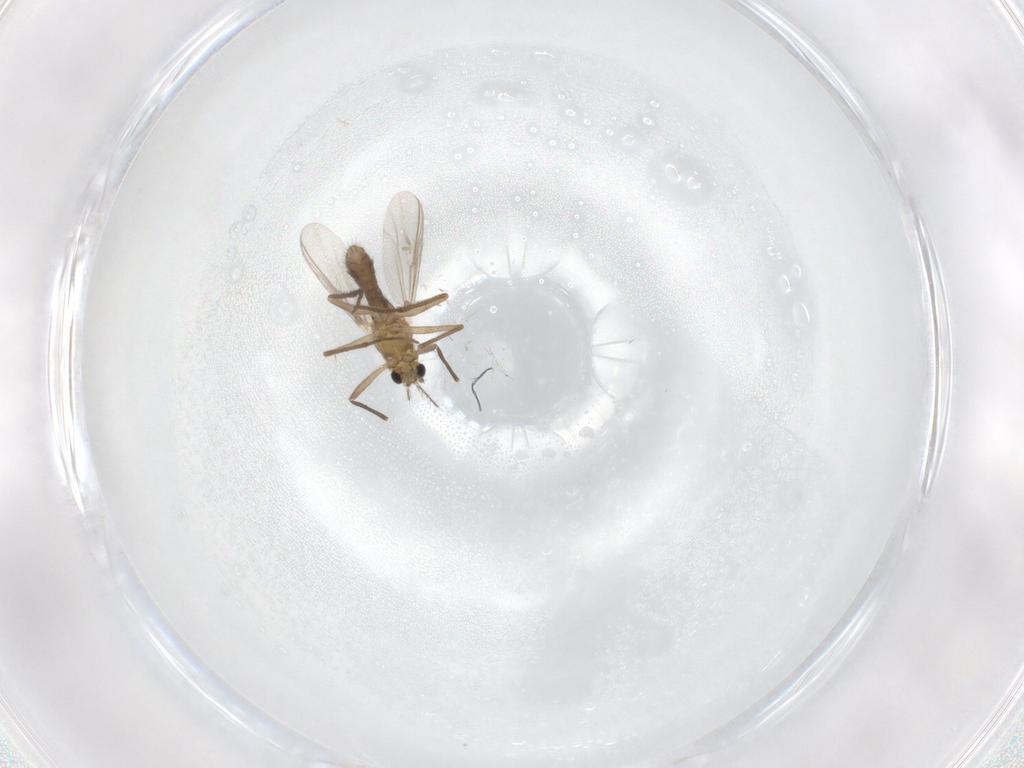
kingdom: Animalia
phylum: Arthropoda
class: Insecta
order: Diptera
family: Chironomidae
